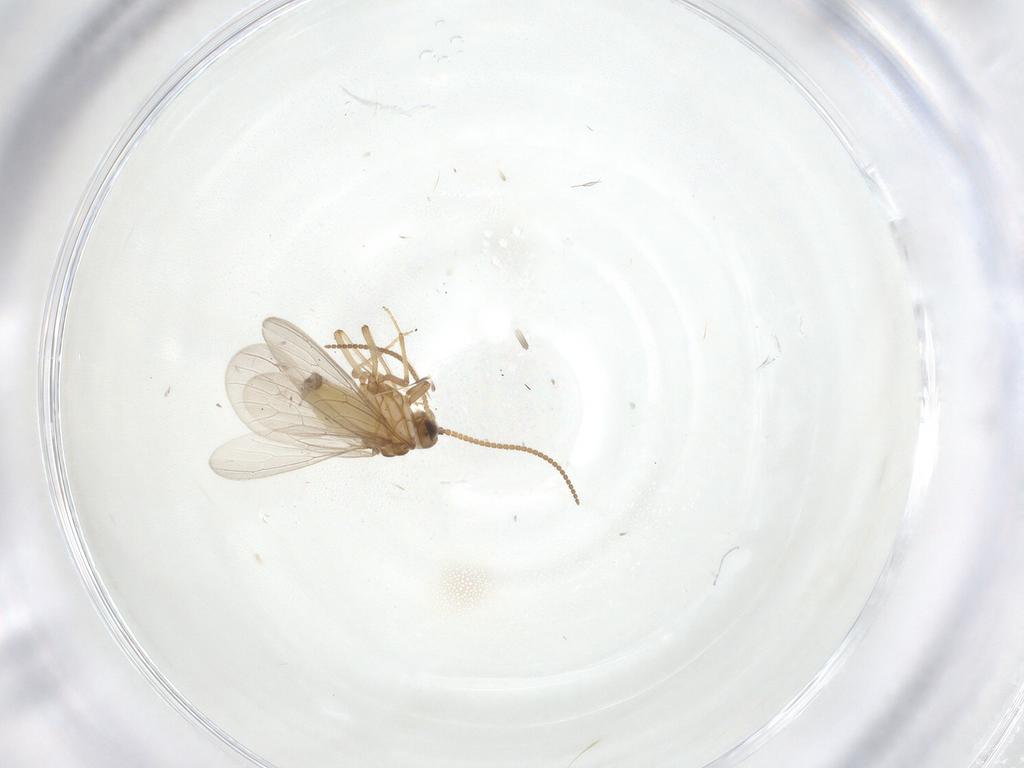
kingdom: Animalia
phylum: Arthropoda
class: Insecta
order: Neuroptera
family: Coniopterygidae
